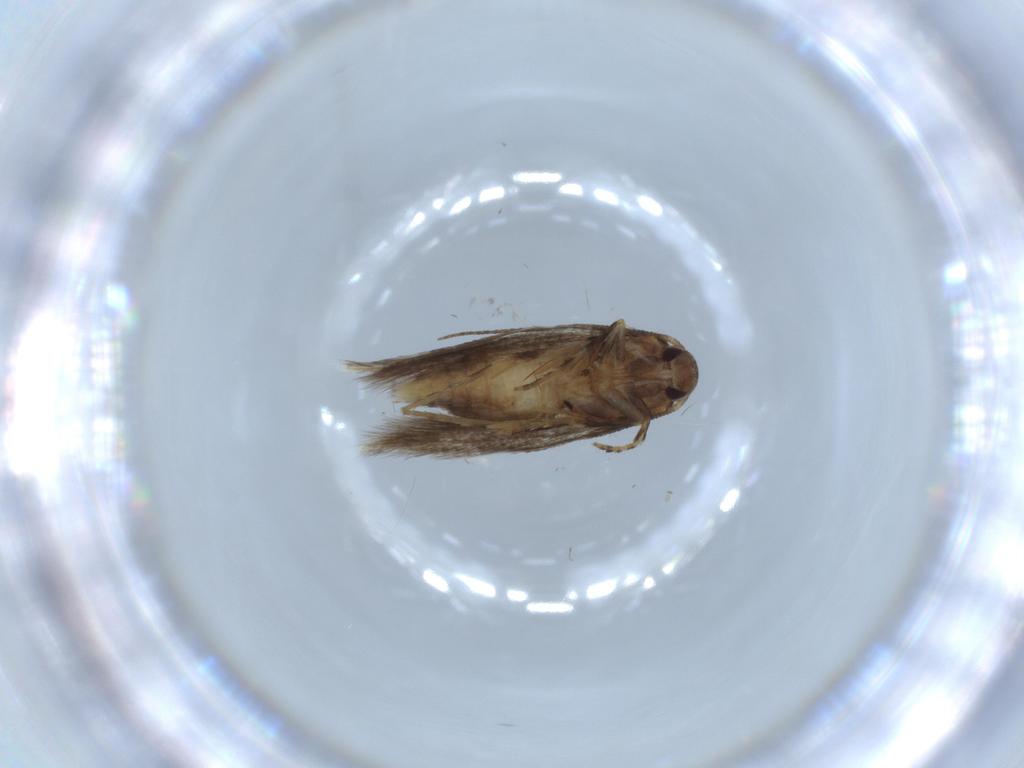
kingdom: Animalia
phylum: Arthropoda
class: Insecta
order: Lepidoptera
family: Elachistidae
